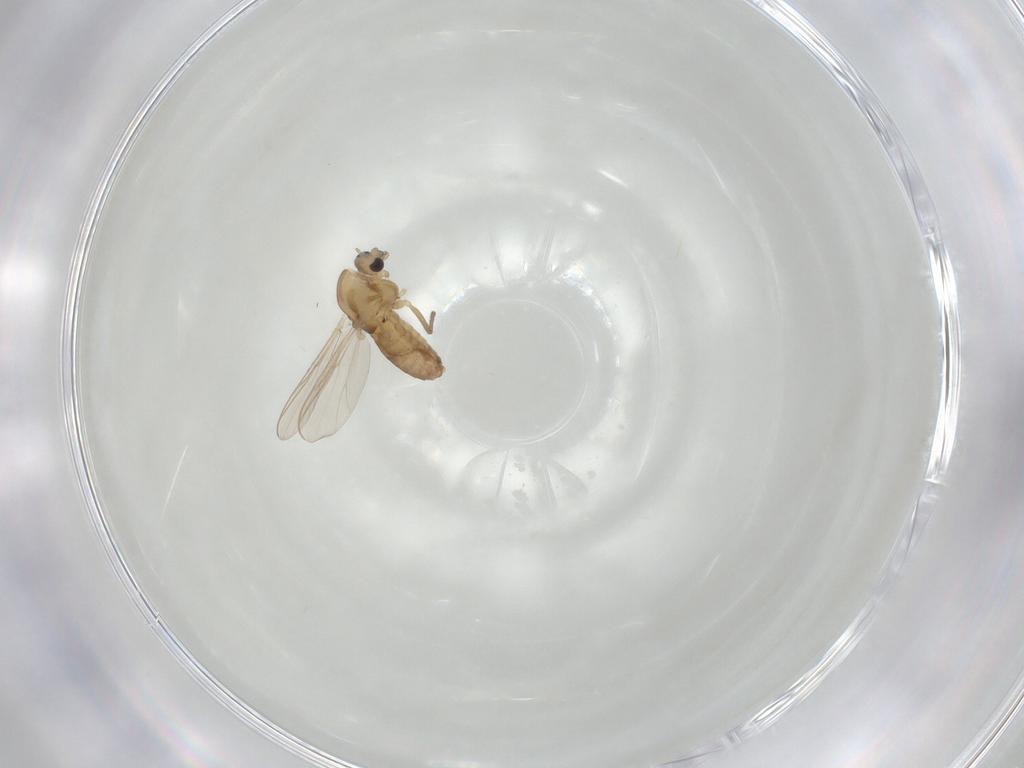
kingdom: Animalia
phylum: Arthropoda
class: Insecta
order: Diptera
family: Chironomidae
